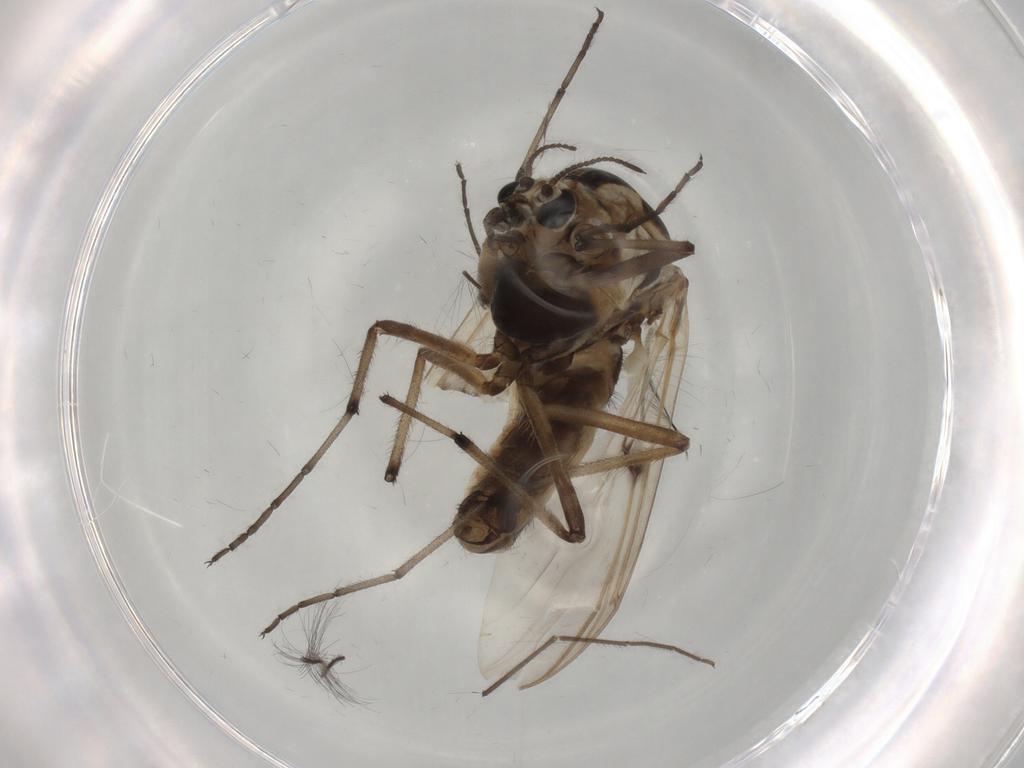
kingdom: Animalia
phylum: Arthropoda
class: Insecta
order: Diptera
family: Chironomidae
